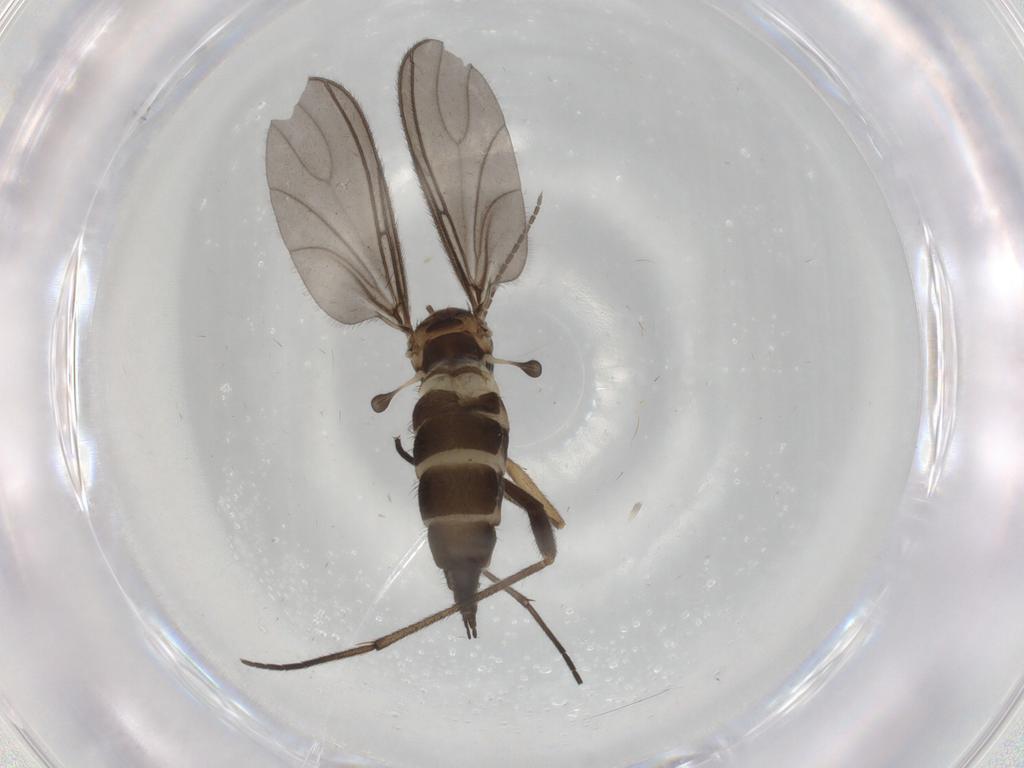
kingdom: Animalia
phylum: Arthropoda
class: Insecta
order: Diptera
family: Sciaridae
